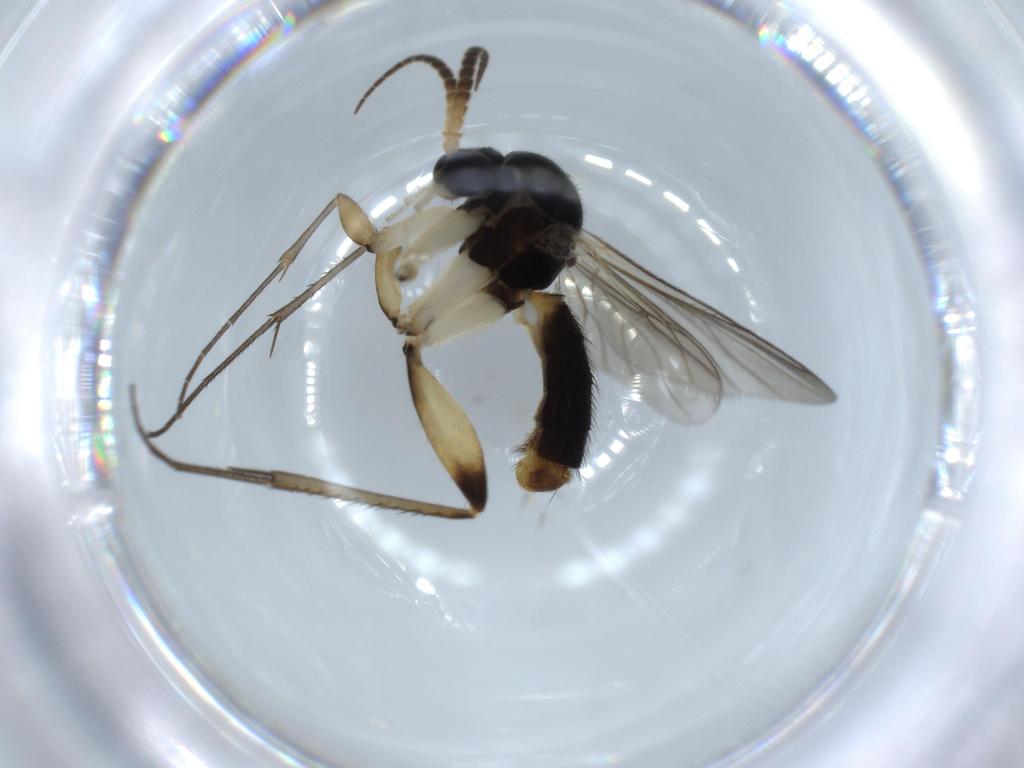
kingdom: Animalia
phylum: Arthropoda
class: Insecta
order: Diptera
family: Mycetophilidae
